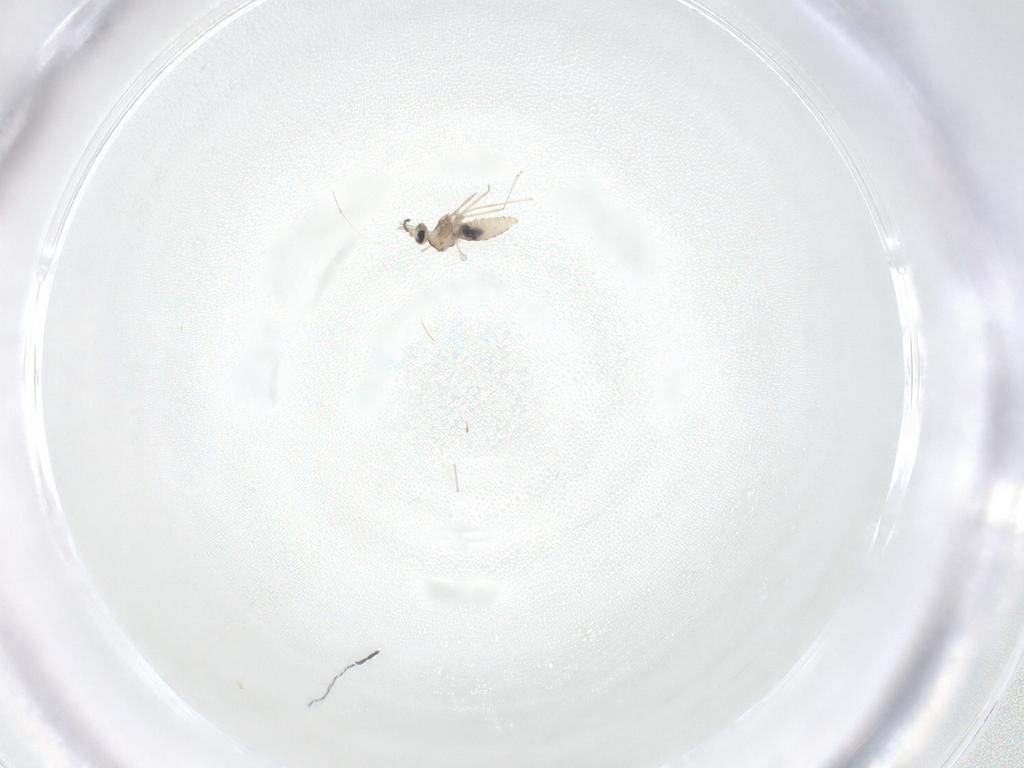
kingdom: Animalia
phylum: Arthropoda
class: Insecta
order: Diptera
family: Cecidomyiidae
